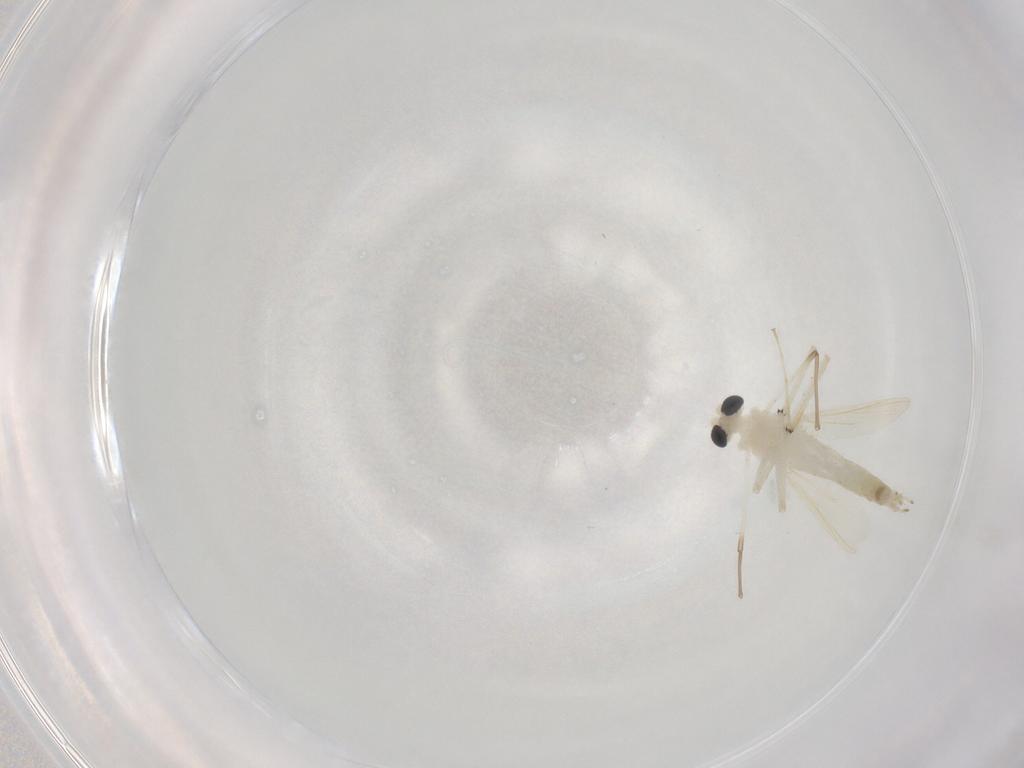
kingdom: Animalia
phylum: Arthropoda
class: Insecta
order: Diptera
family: Chironomidae
